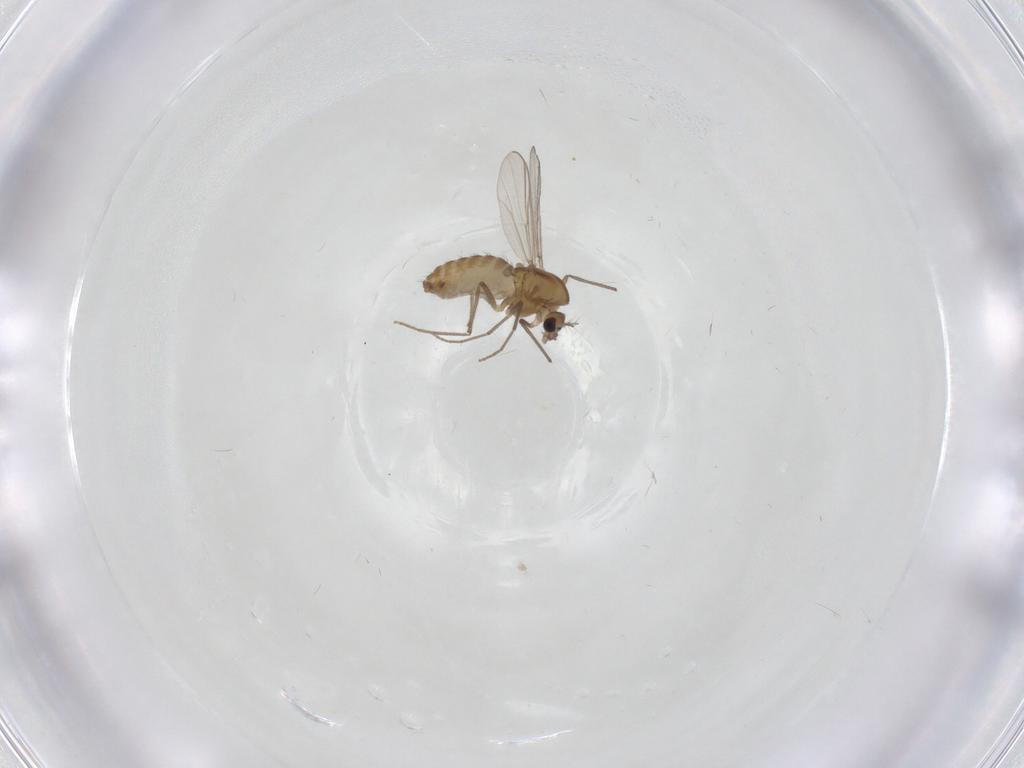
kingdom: Animalia
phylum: Arthropoda
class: Insecta
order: Diptera
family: Chironomidae
